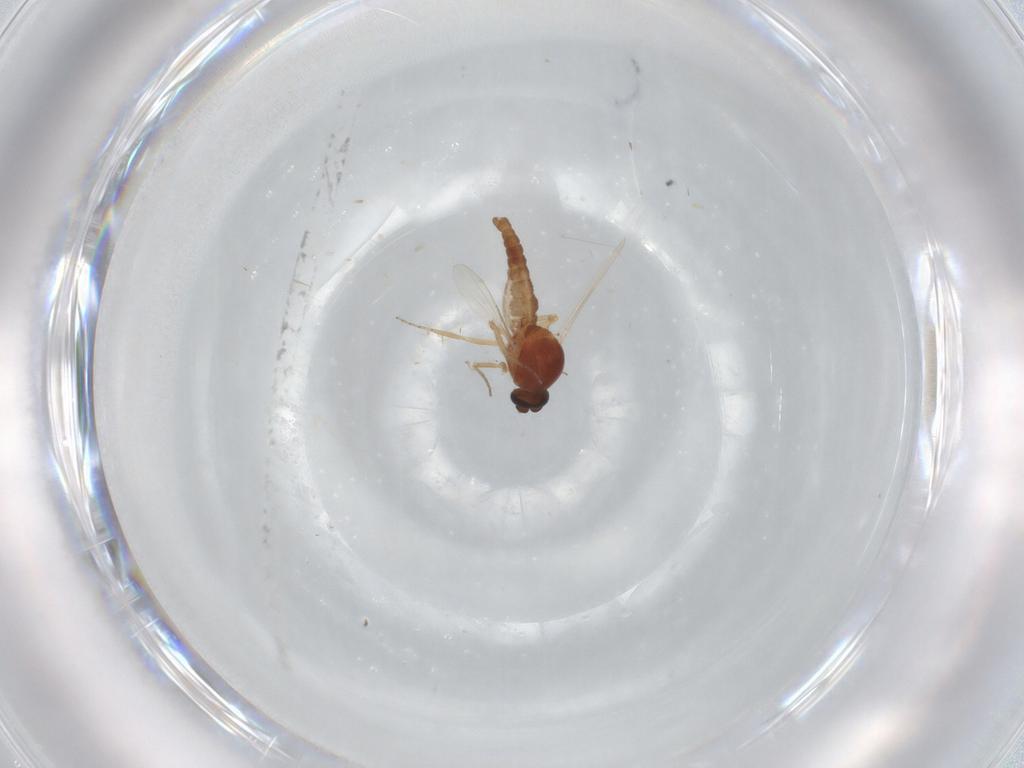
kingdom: Animalia
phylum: Arthropoda
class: Insecta
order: Diptera
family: Ceratopogonidae
